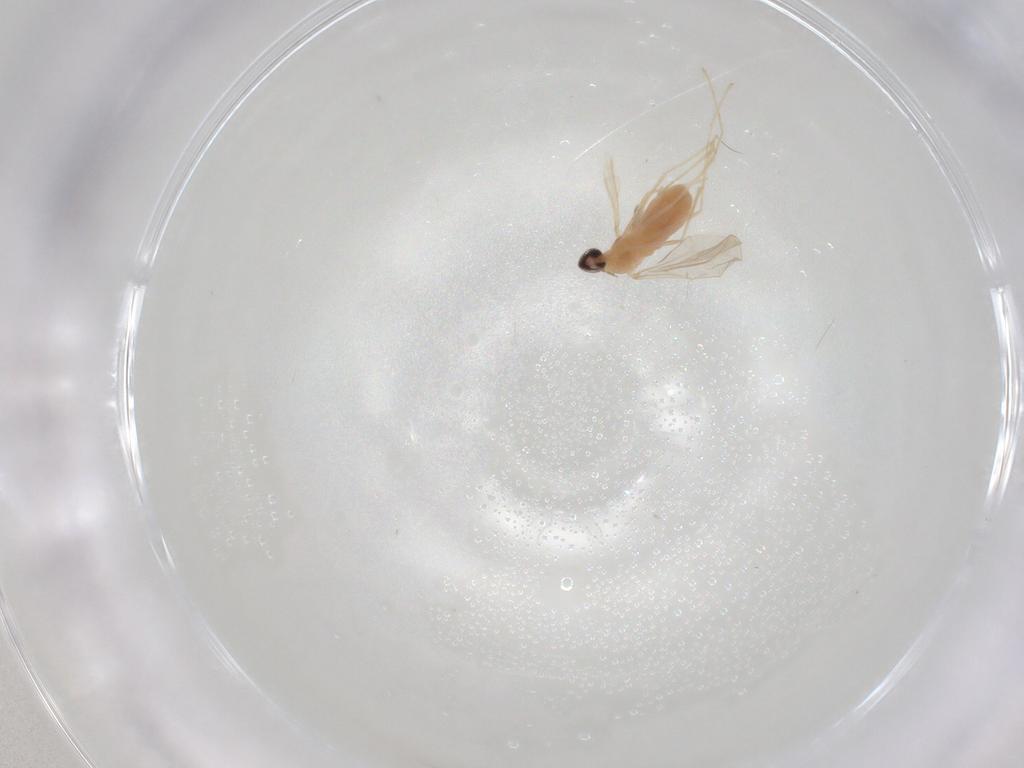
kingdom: Animalia
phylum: Arthropoda
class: Insecta
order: Diptera
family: Cecidomyiidae
